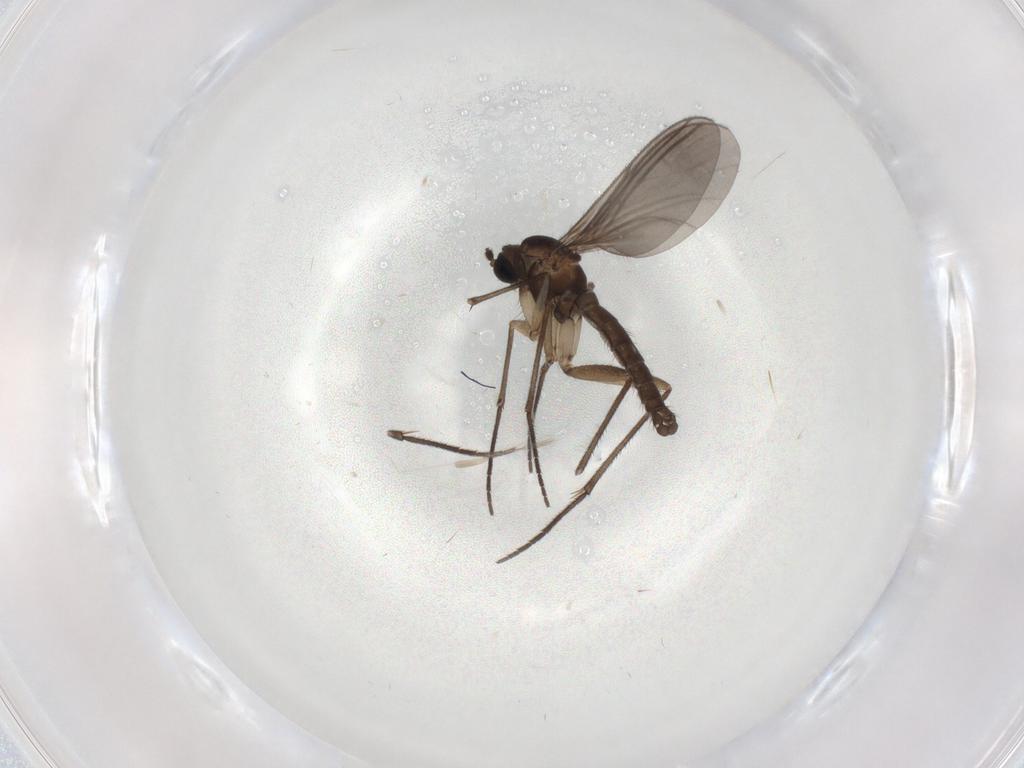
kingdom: Animalia
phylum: Arthropoda
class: Insecta
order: Diptera
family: Sciaridae
